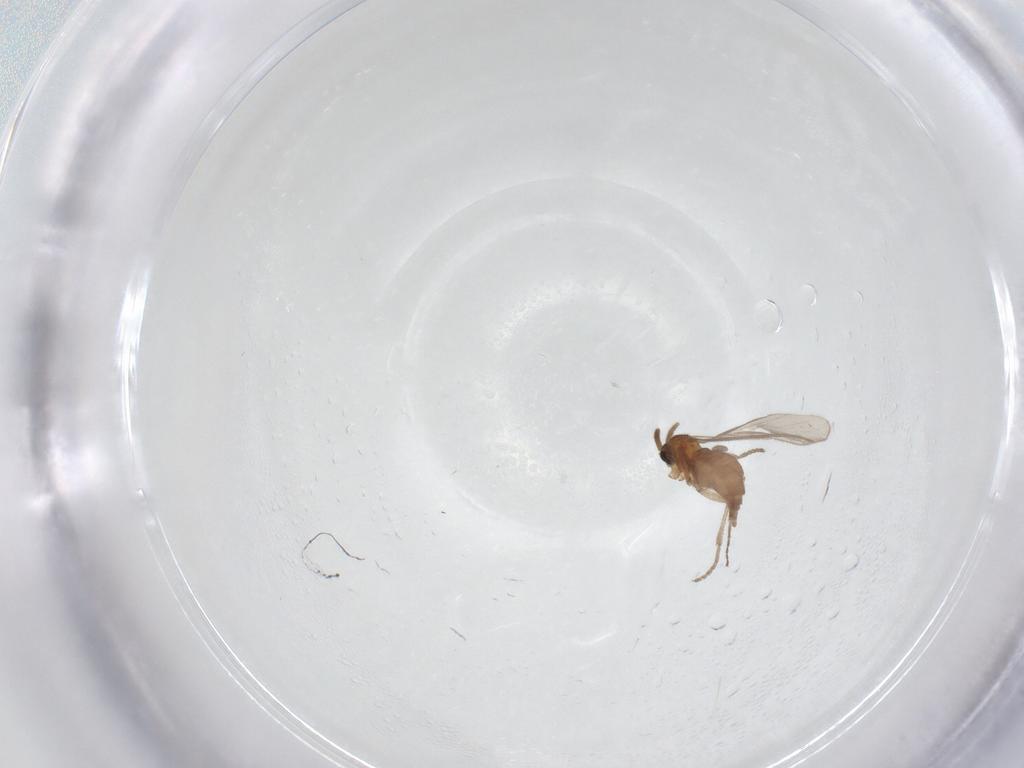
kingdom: Animalia
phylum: Arthropoda
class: Insecta
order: Diptera
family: Sciaridae
